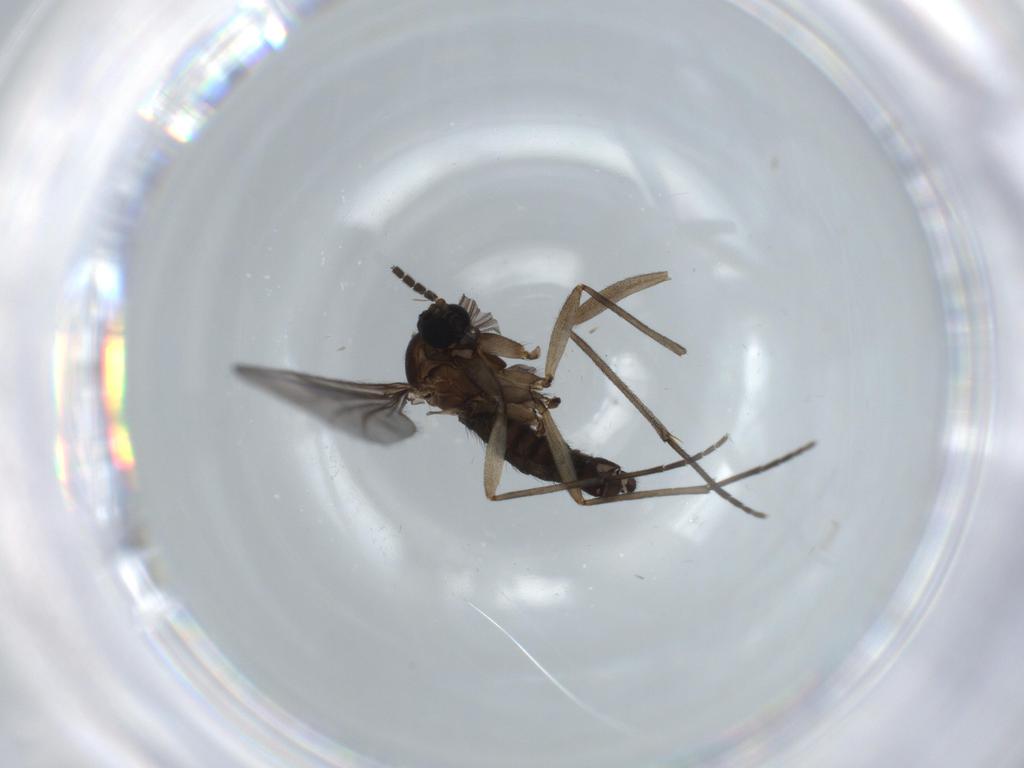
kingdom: Animalia
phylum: Arthropoda
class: Insecta
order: Diptera
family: Sciaridae
